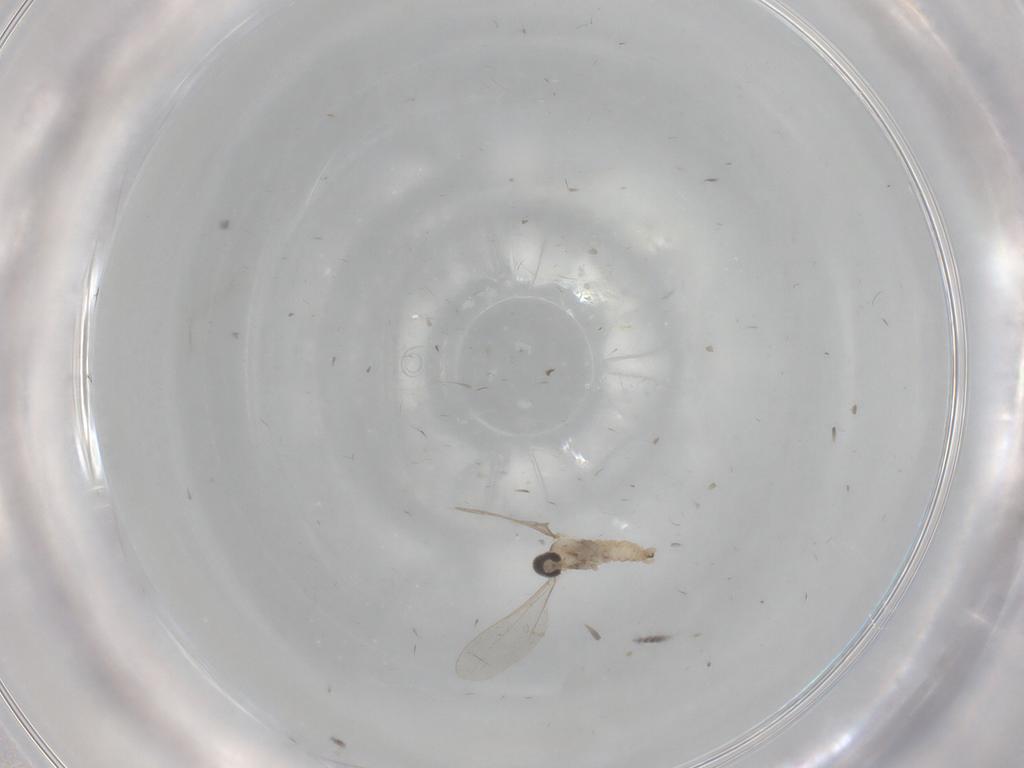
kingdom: Animalia
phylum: Arthropoda
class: Insecta
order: Diptera
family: Cecidomyiidae
